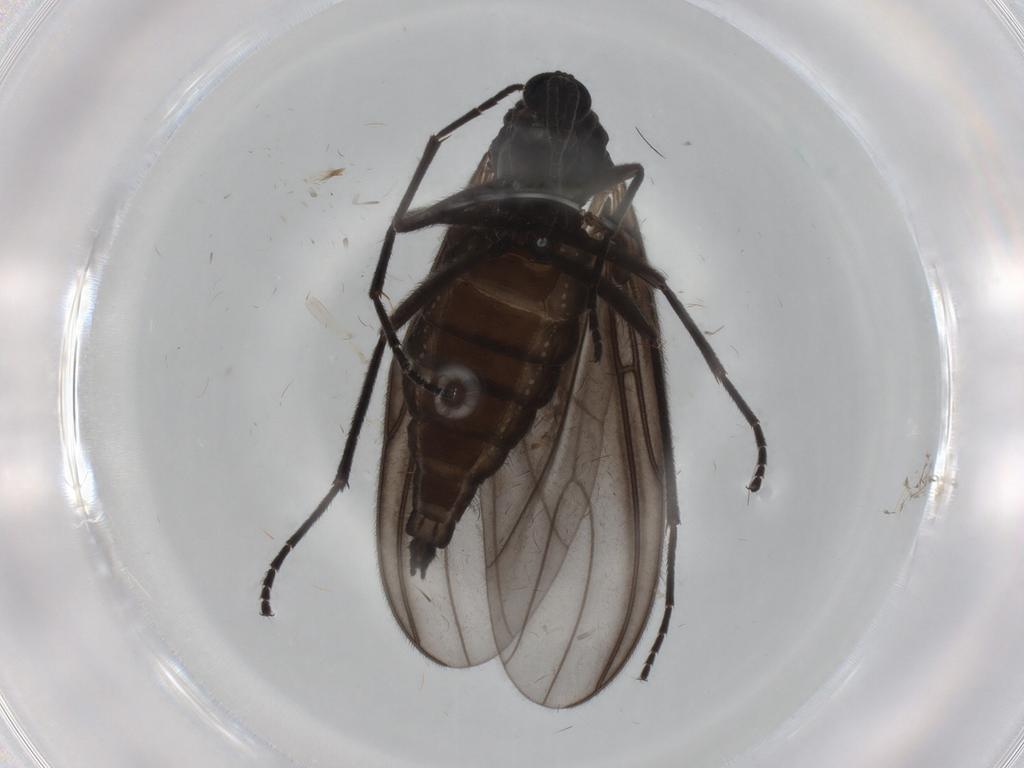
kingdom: Animalia
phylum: Arthropoda
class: Insecta
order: Diptera
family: Sciaridae
